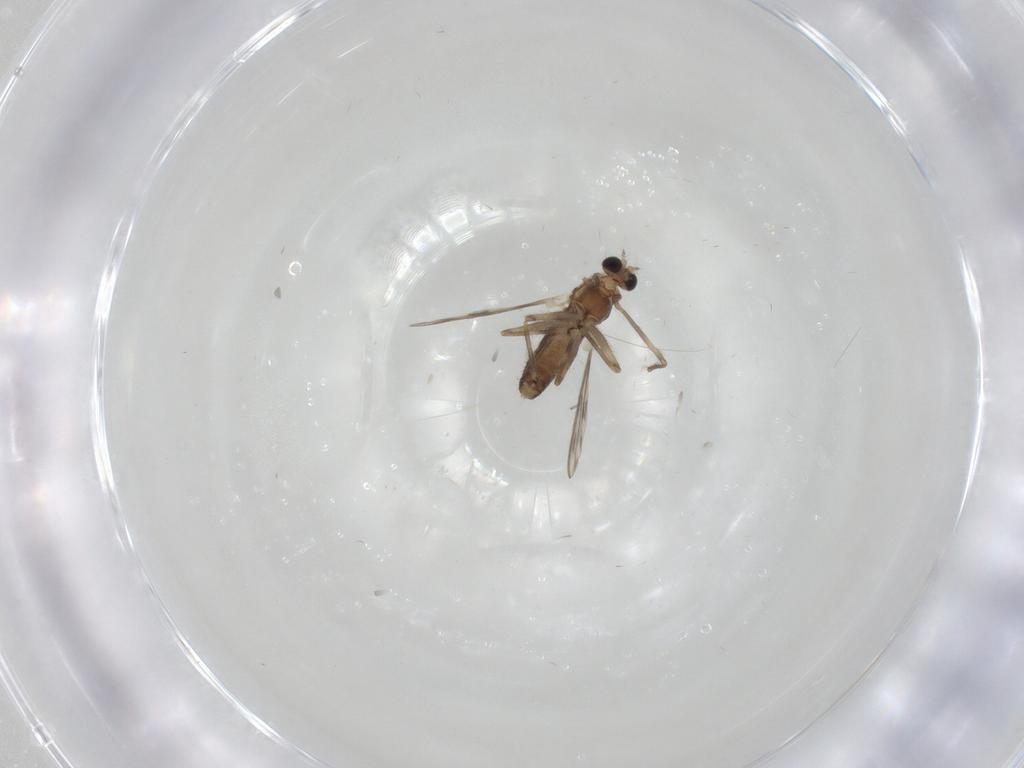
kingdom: Animalia
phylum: Arthropoda
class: Insecta
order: Diptera
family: Chironomidae
